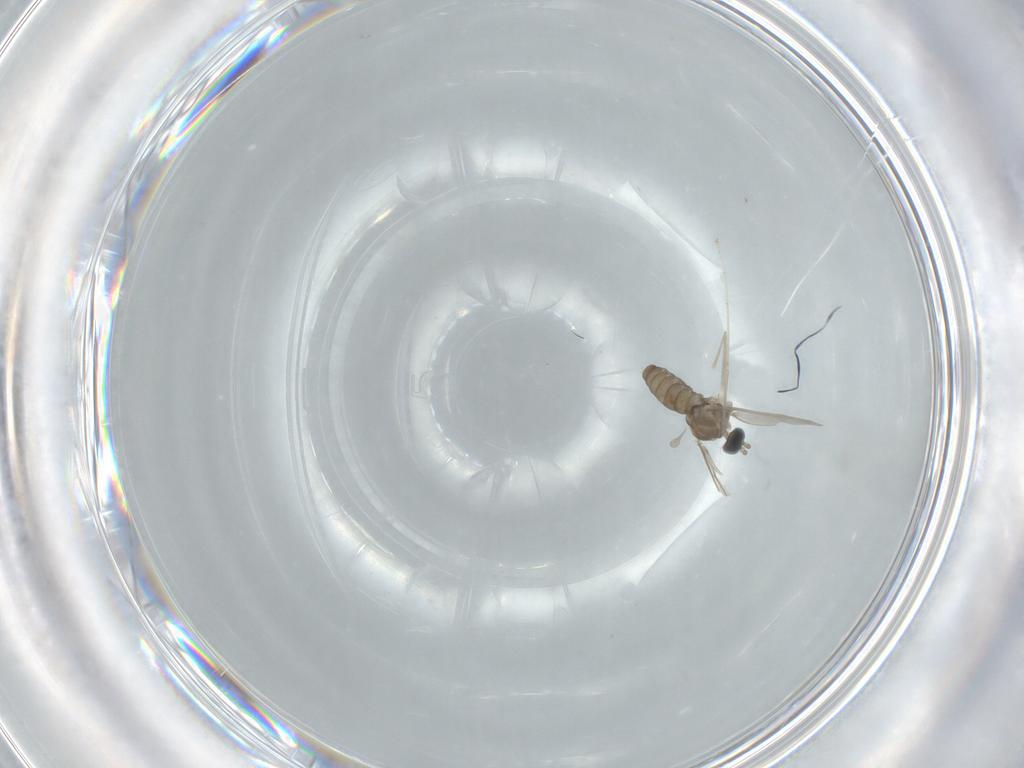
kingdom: Animalia
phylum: Arthropoda
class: Insecta
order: Diptera
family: Cecidomyiidae
